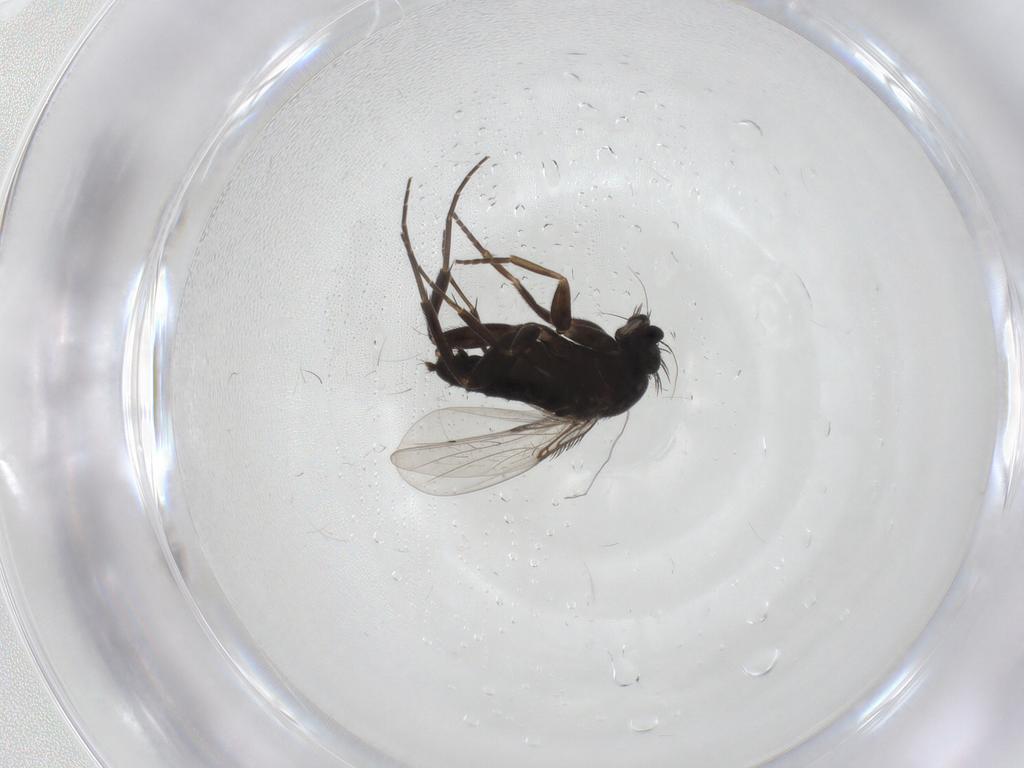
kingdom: Animalia
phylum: Arthropoda
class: Insecta
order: Diptera
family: Phoridae
